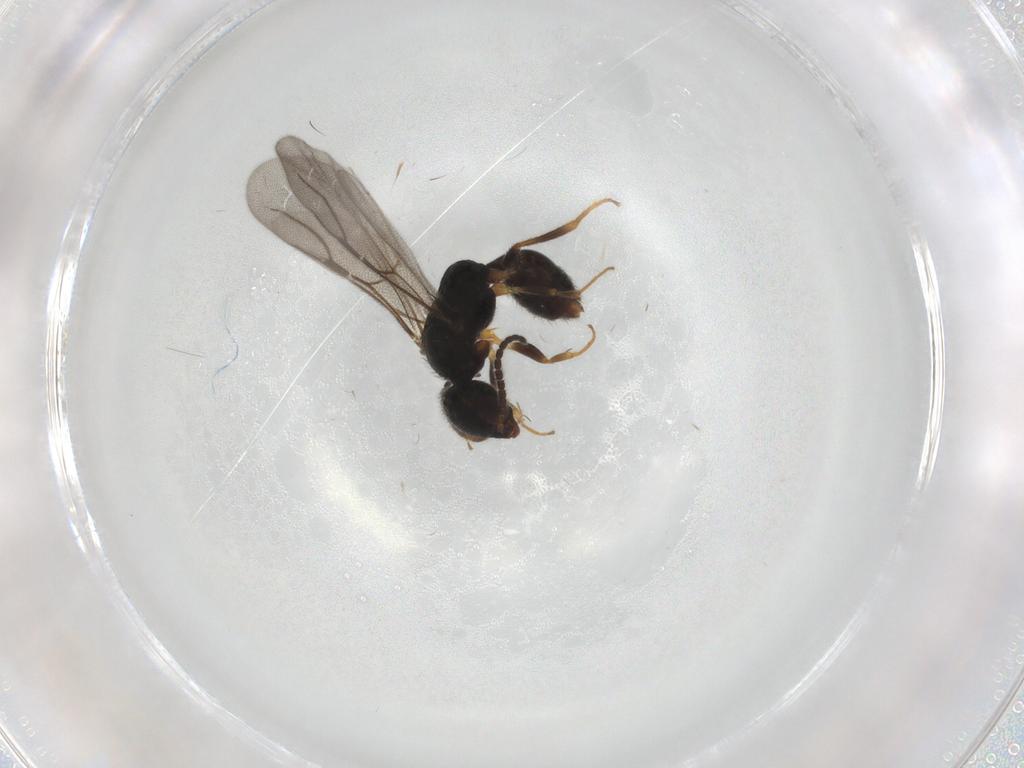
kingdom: Animalia
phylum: Arthropoda
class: Insecta
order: Hymenoptera
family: Bethylidae
